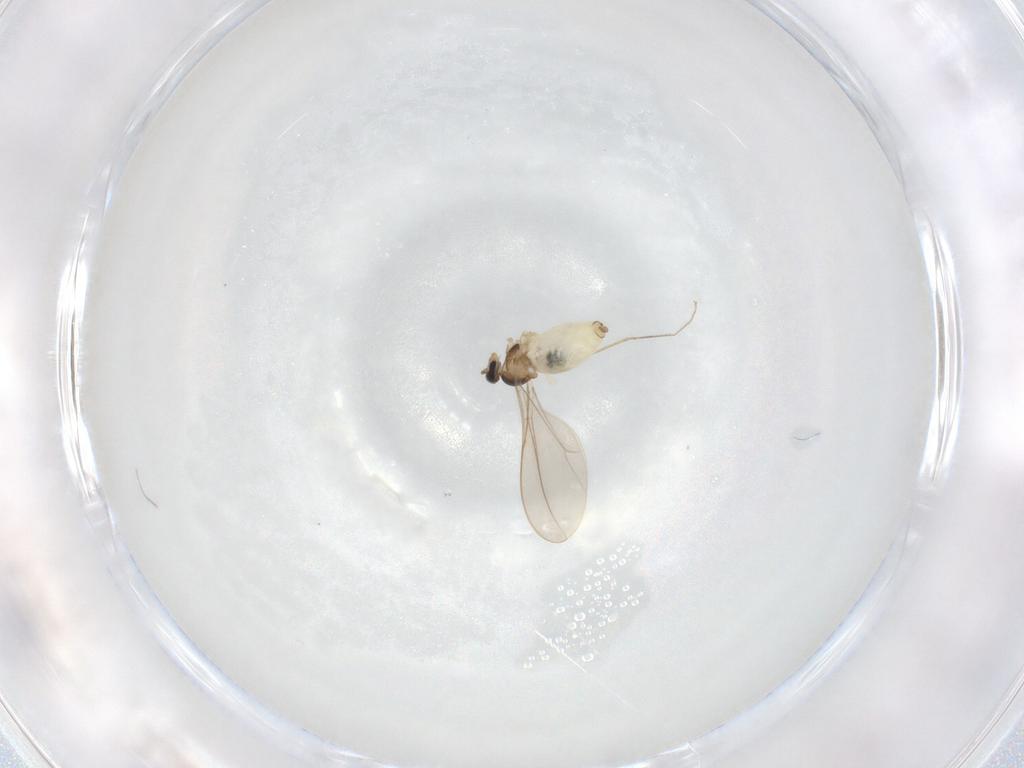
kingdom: Animalia
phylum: Arthropoda
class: Insecta
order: Diptera
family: Cecidomyiidae
